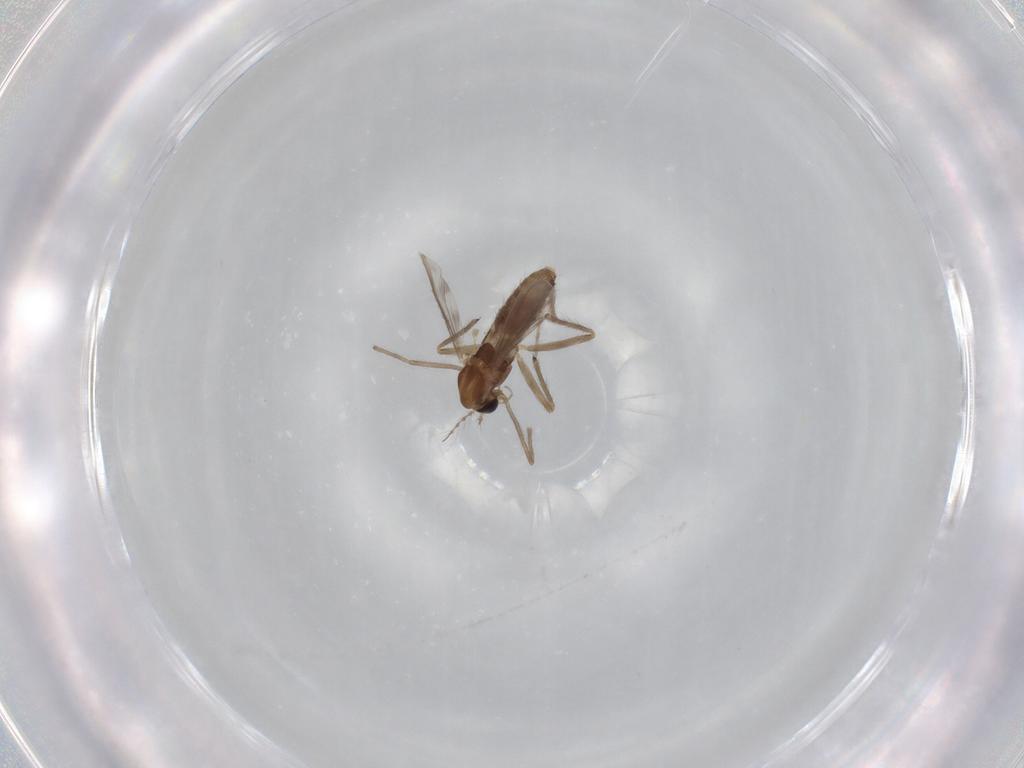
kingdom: Animalia
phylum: Arthropoda
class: Insecta
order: Diptera
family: Chironomidae
